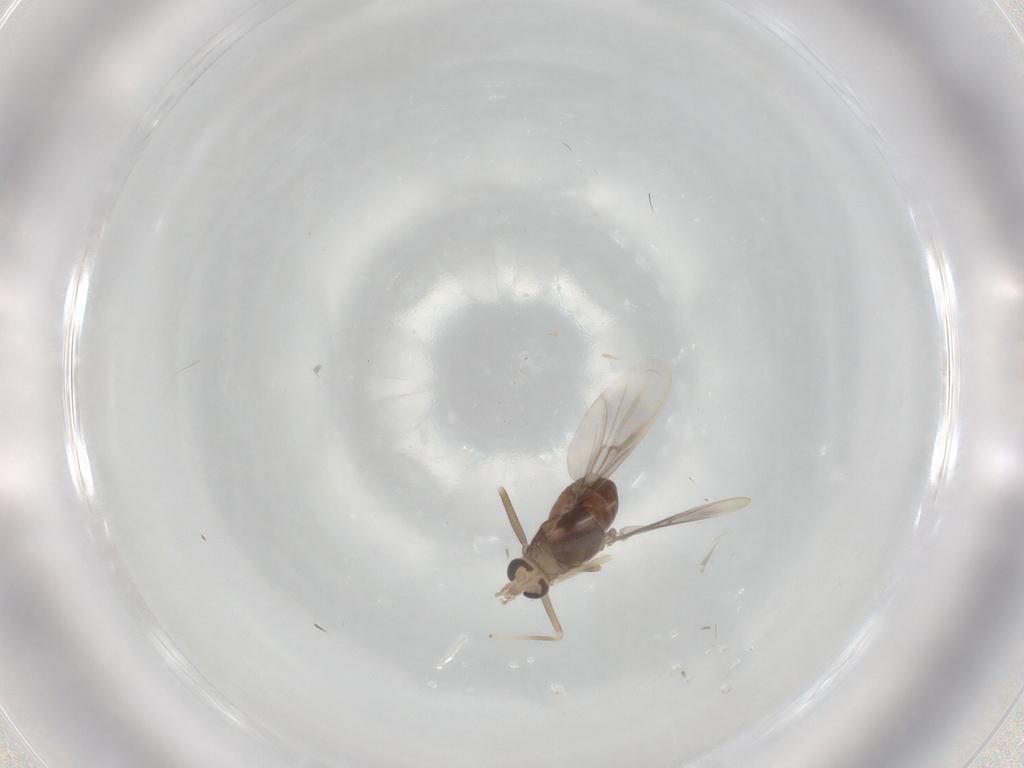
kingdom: Animalia
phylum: Arthropoda
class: Insecta
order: Diptera
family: Chironomidae
